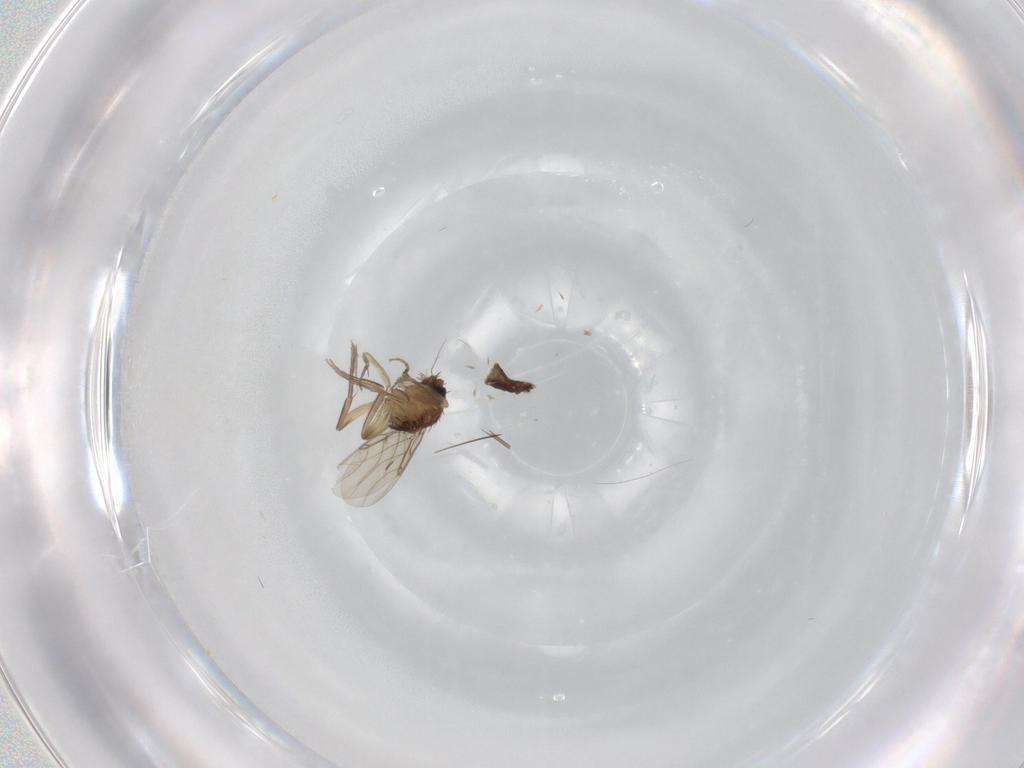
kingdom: Animalia
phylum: Arthropoda
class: Insecta
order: Diptera
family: Phoridae
